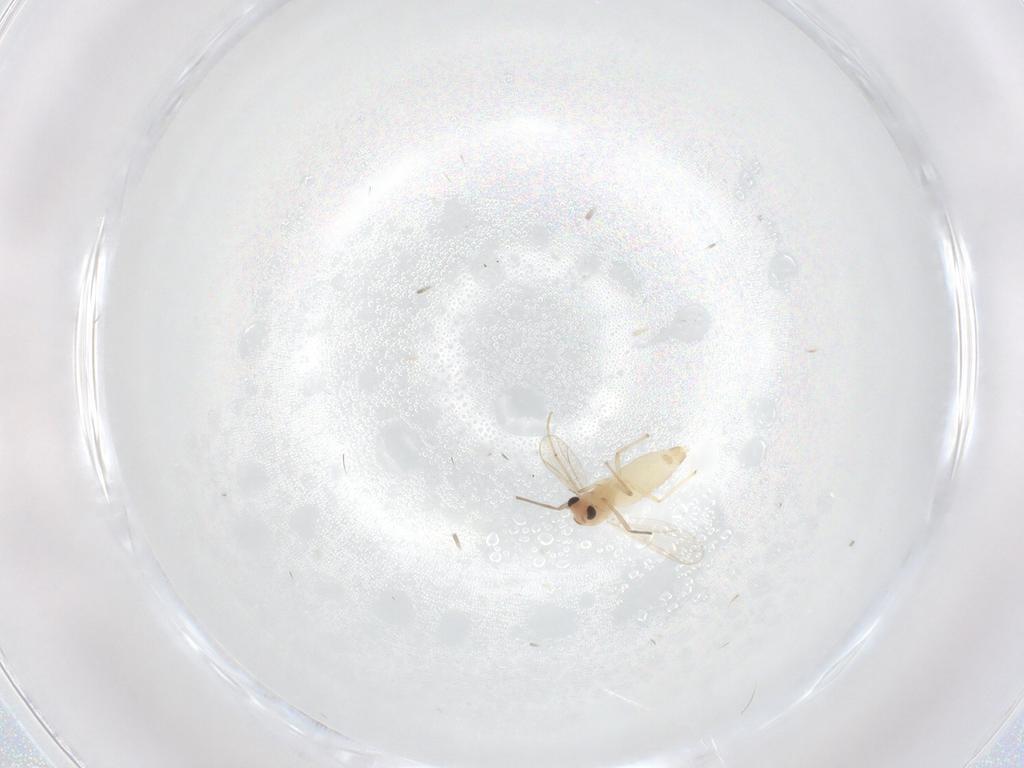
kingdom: Animalia
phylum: Arthropoda
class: Insecta
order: Diptera
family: Chironomidae
